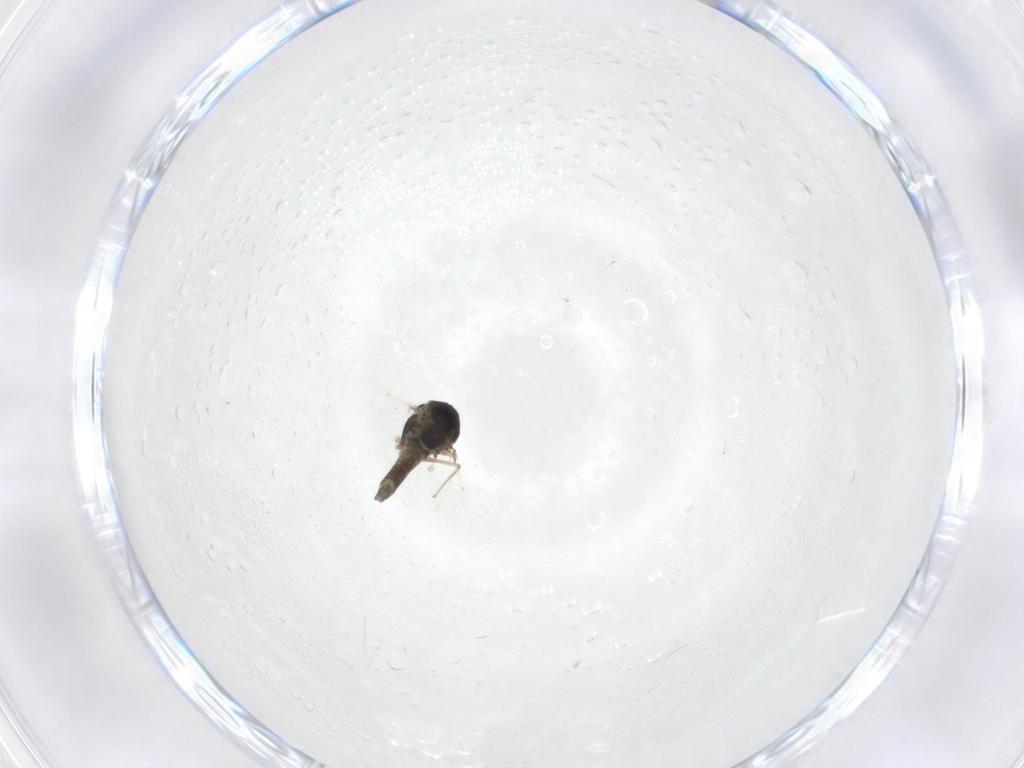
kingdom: Animalia
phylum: Arthropoda
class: Insecta
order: Diptera
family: Chironomidae
